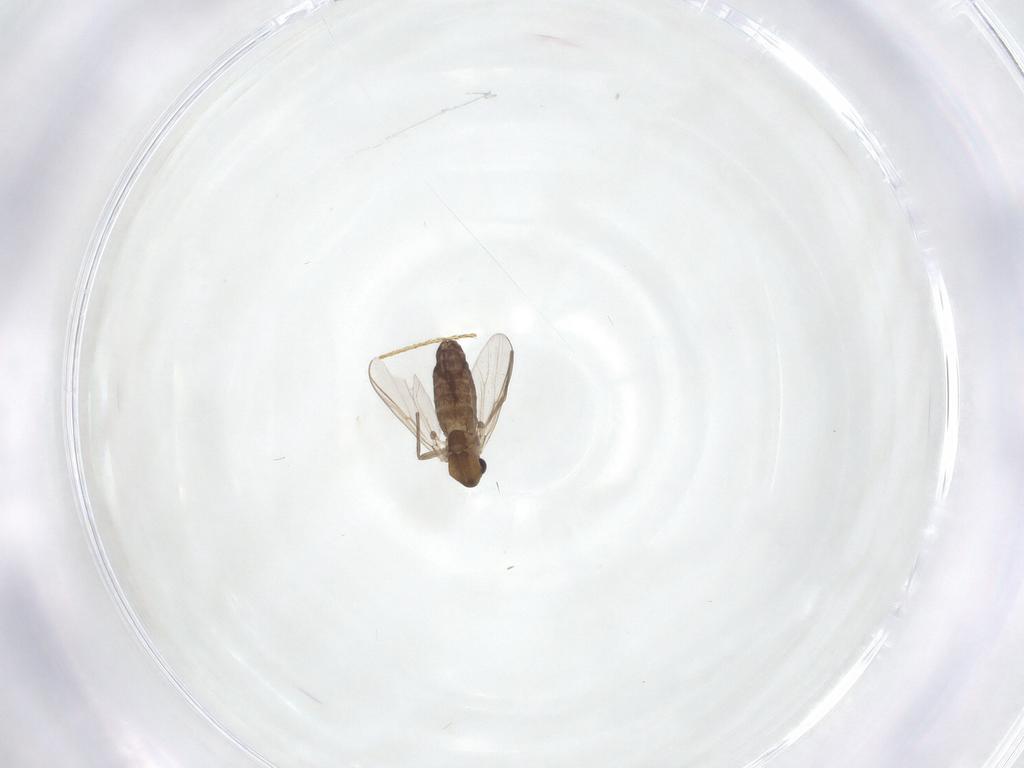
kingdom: Animalia
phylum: Arthropoda
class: Insecta
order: Diptera
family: Chironomidae
